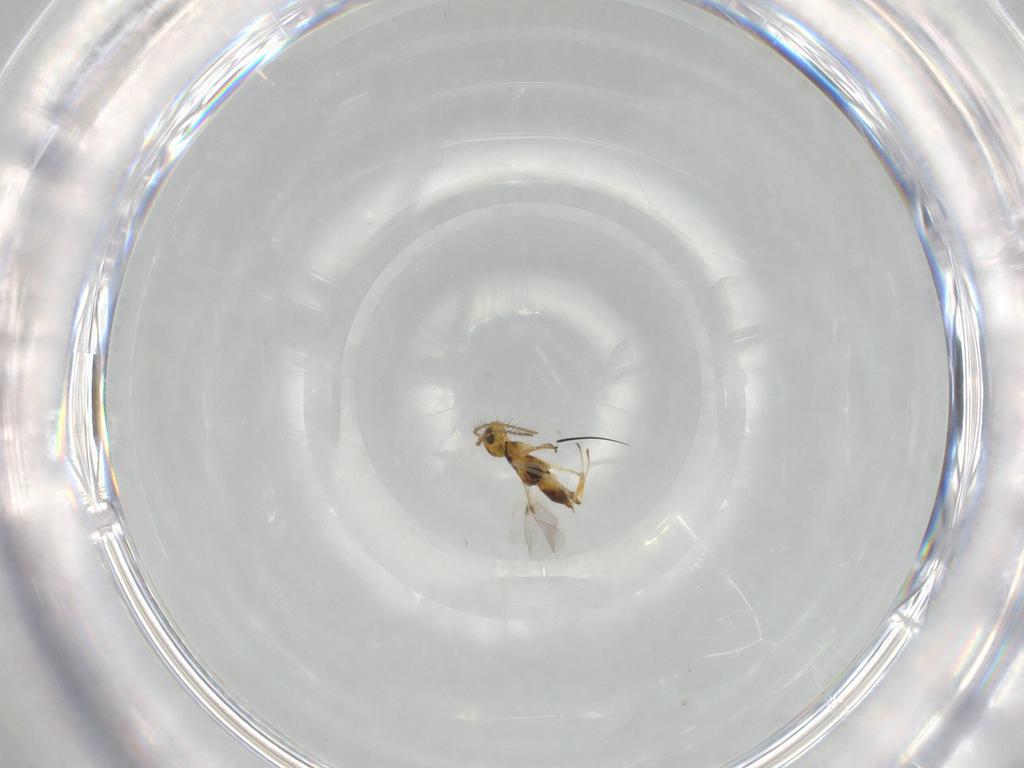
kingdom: Animalia
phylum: Arthropoda
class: Insecta
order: Hymenoptera
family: Encyrtidae
